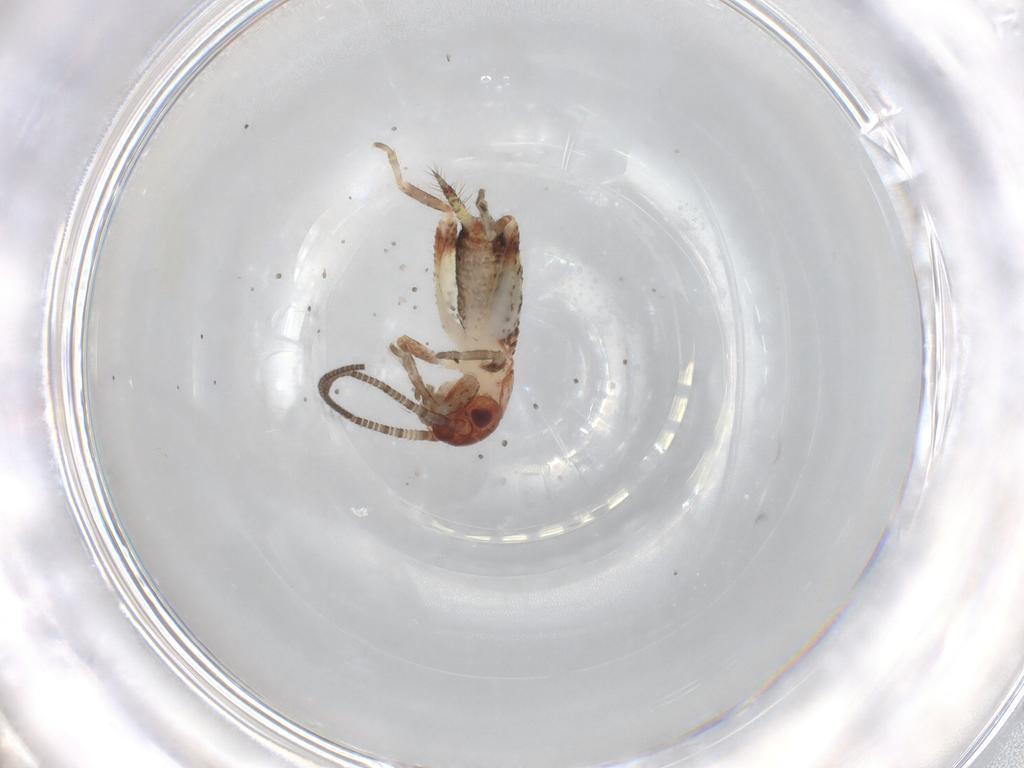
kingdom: Animalia
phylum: Arthropoda
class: Insecta
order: Orthoptera
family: Mogoplistidae
